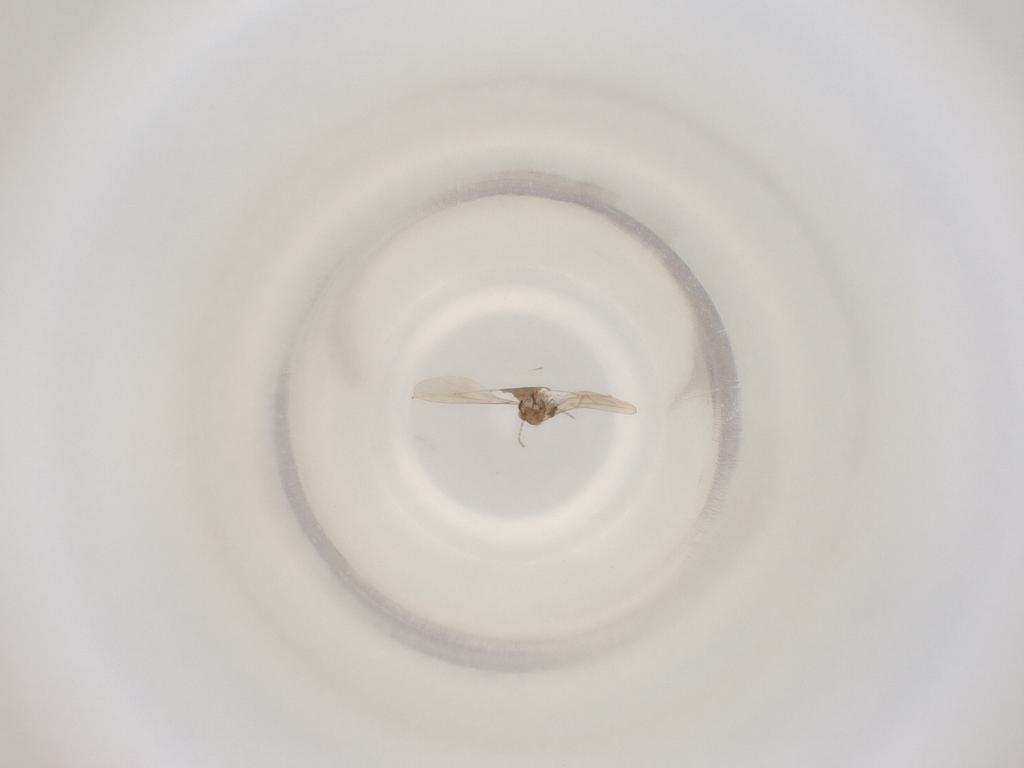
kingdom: Animalia
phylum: Arthropoda
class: Insecta
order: Diptera
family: Cecidomyiidae
